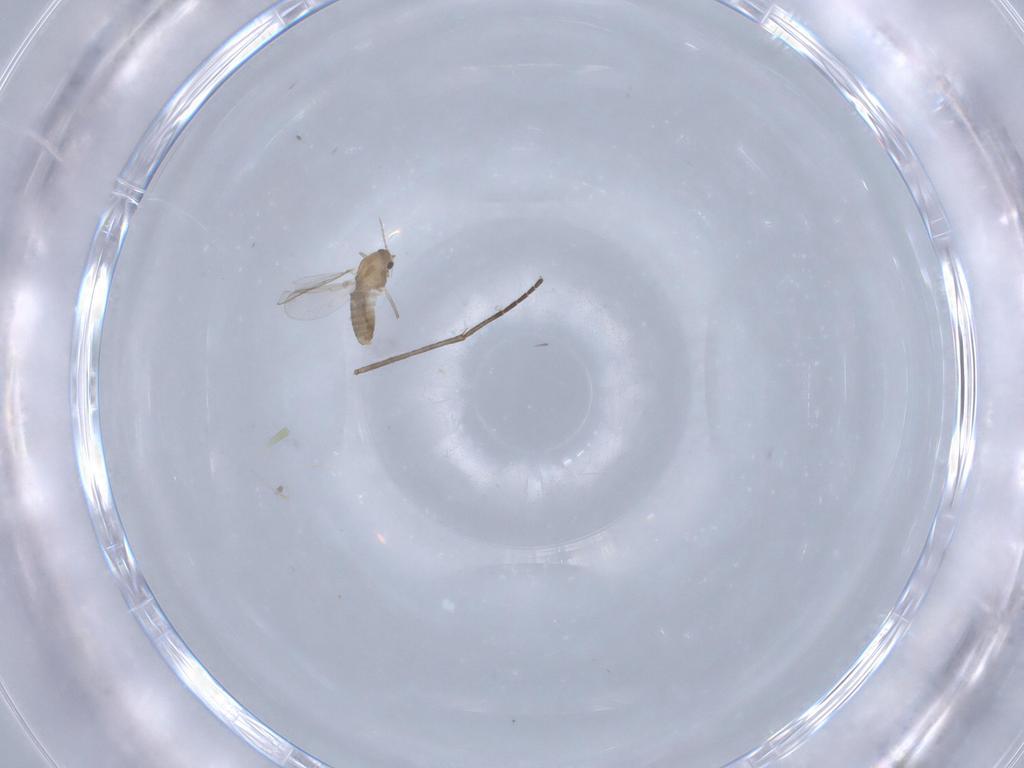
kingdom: Animalia
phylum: Arthropoda
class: Insecta
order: Diptera
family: Sciaridae
